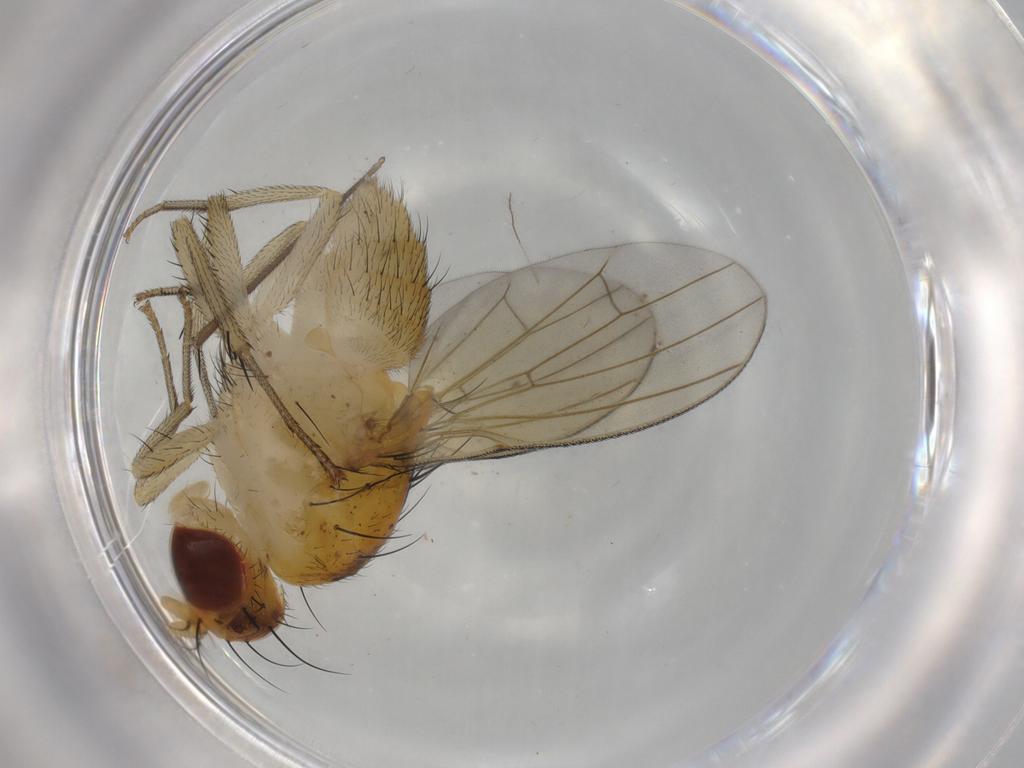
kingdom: Animalia
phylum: Arthropoda
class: Insecta
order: Diptera
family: Limoniidae
